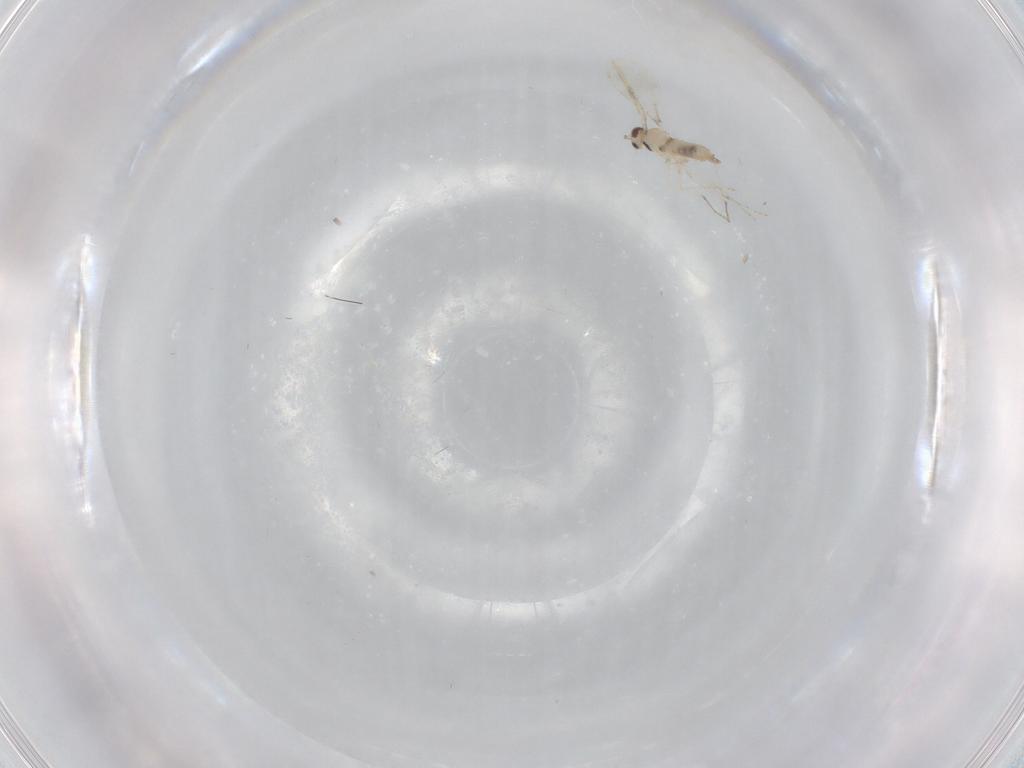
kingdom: Animalia
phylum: Arthropoda
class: Insecta
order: Diptera
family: Cecidomyiidae
